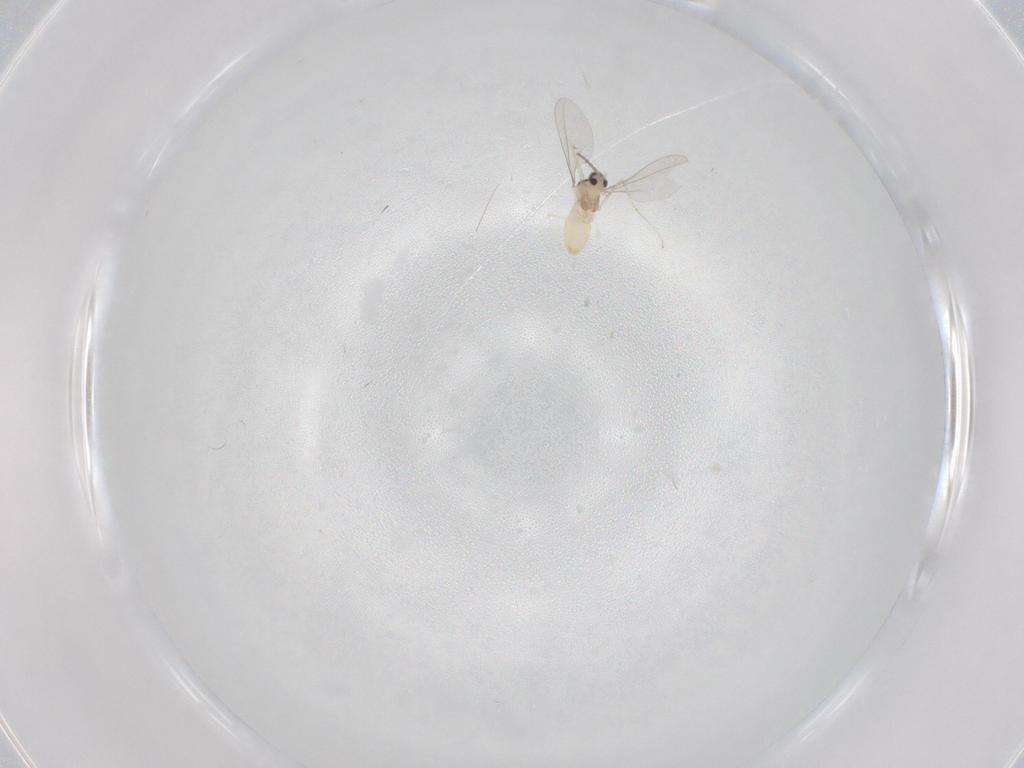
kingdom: Animalia
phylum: Arthropoda
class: Insecta
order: Diptera
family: Cecidomyiidae
